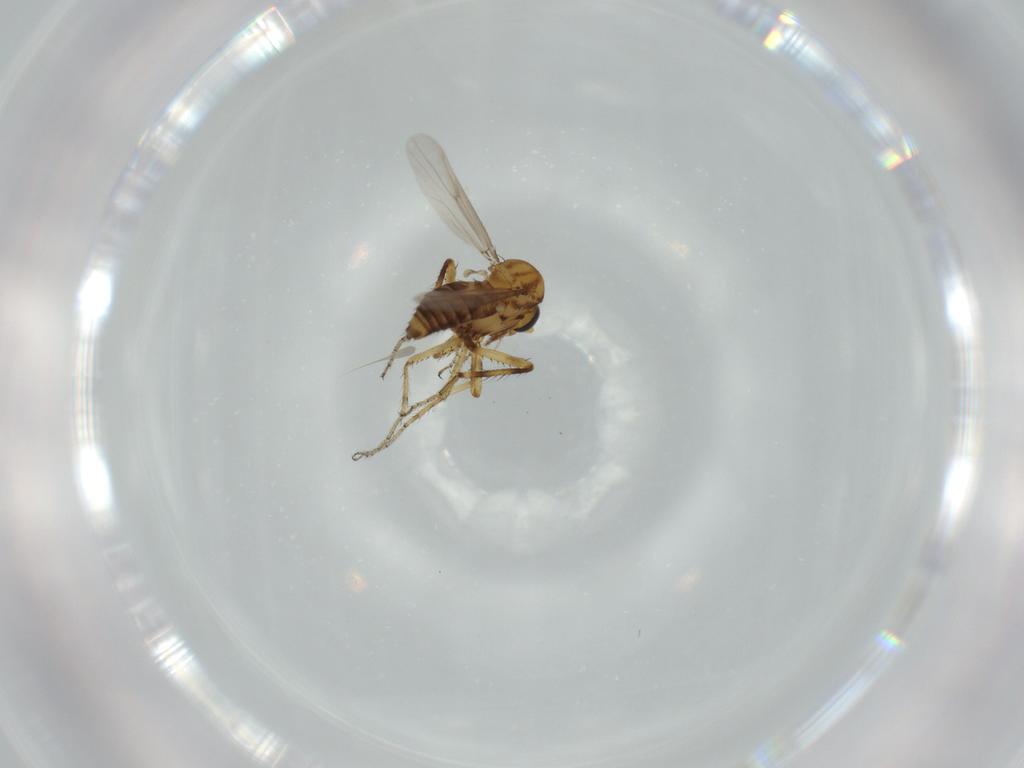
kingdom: Animalia
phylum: Arthropoda
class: Insecta
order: Diptera
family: Ceratopogonidae
